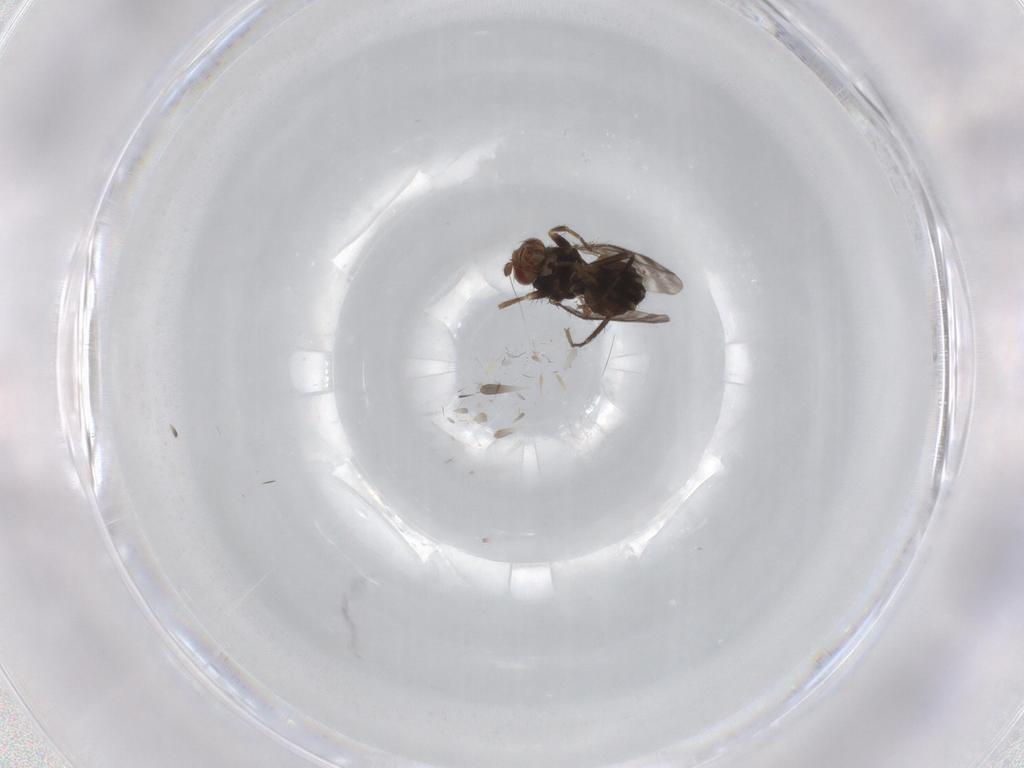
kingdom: Animalia
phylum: Arthropoda
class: Insecta
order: Diptera
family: Sphaeroceridae
